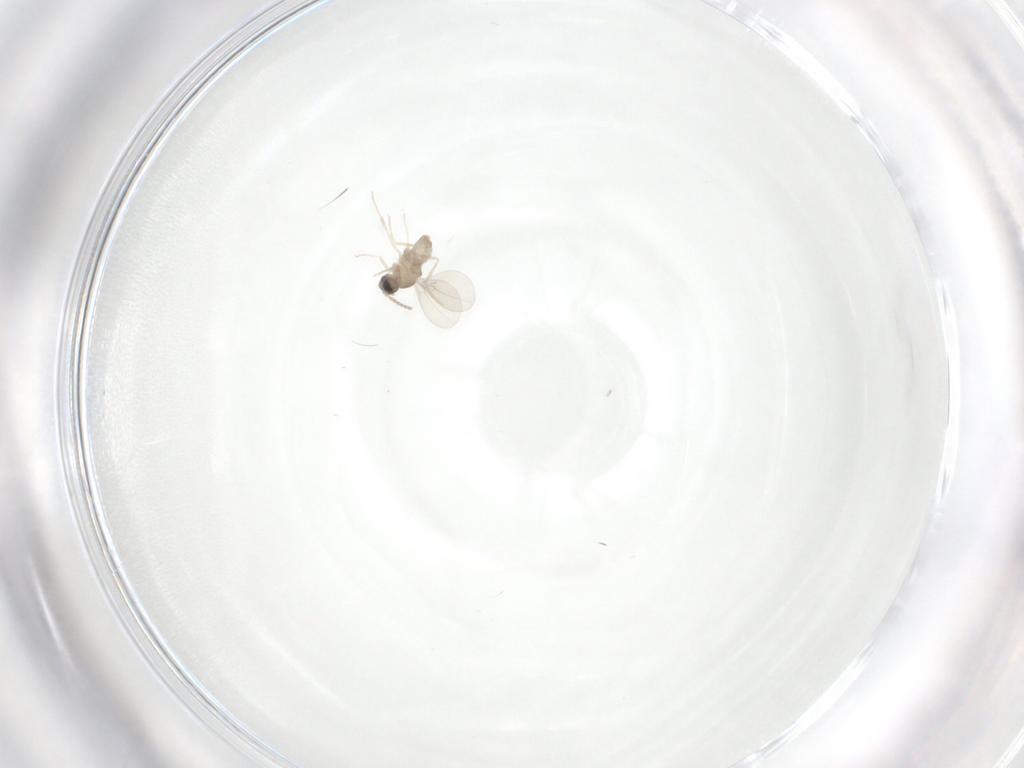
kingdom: Animalia
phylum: Arthropoda
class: Insecta
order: Diptera
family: Cecidomyiidae
